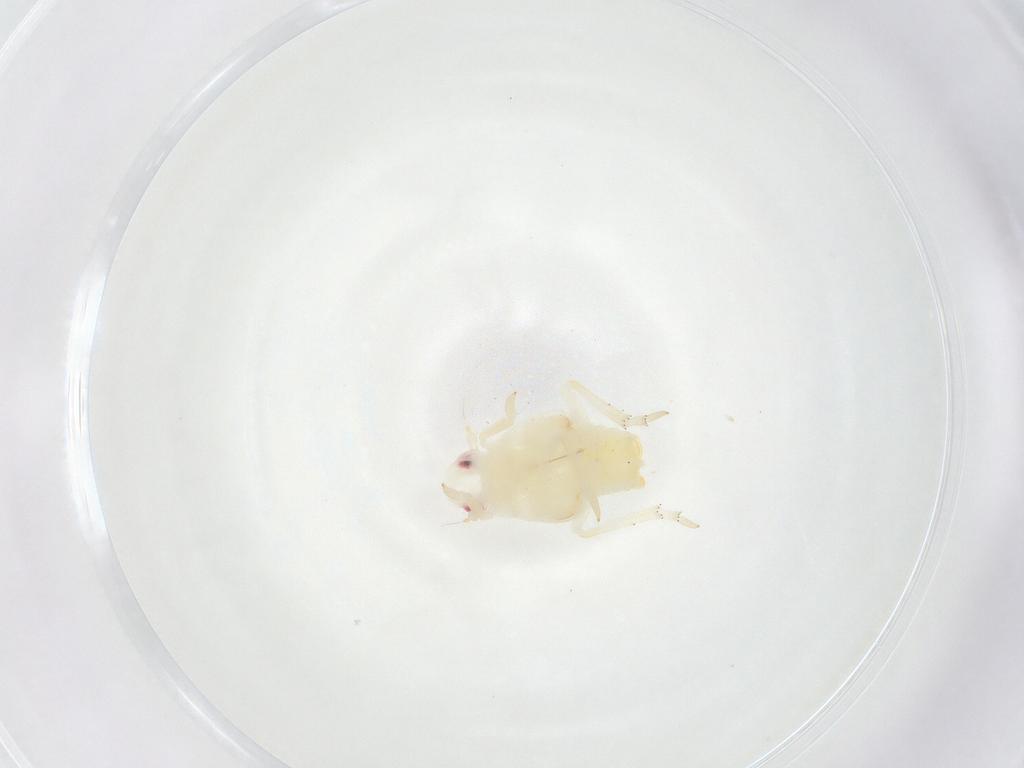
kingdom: Animalia
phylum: Arthropoda
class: Insecta
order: Hemiptera
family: Flatidae
